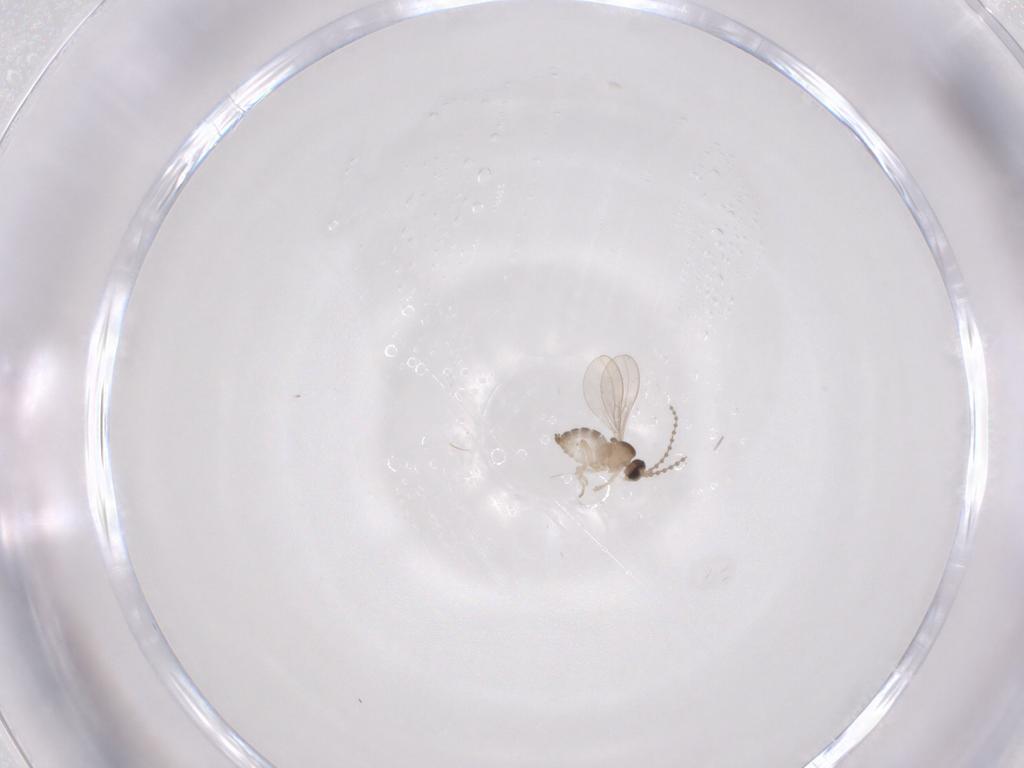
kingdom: Animalia
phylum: Arthropoda
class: Insecta
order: Diptera
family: Cecidomyiidae
